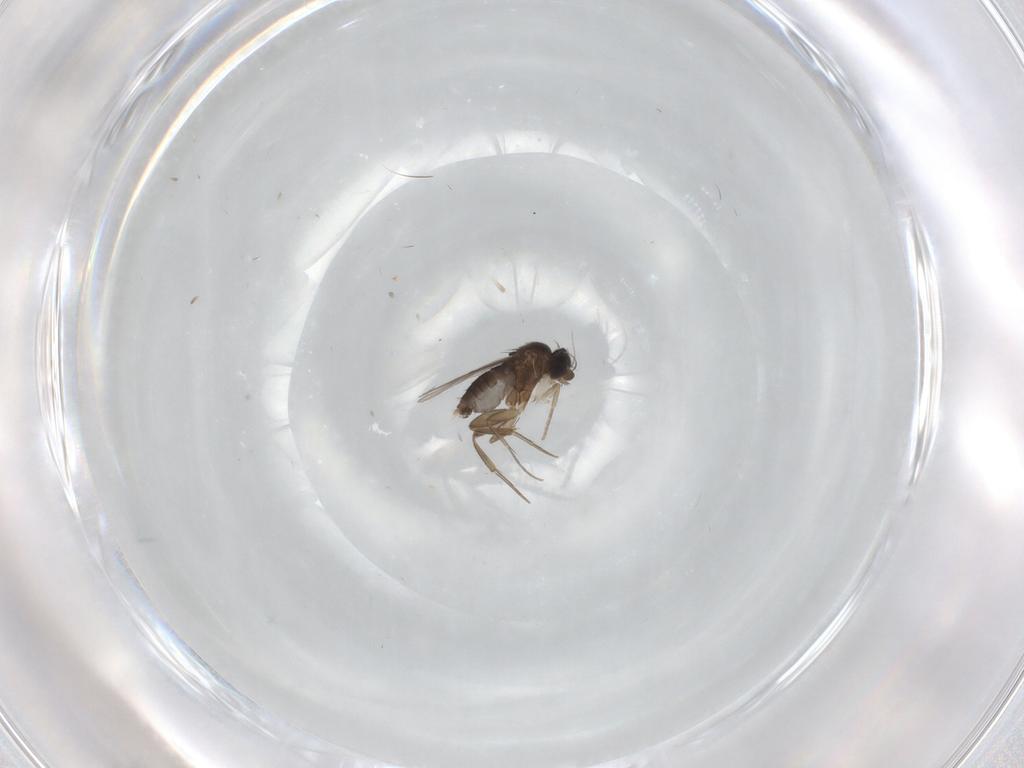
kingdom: Animalia
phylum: Arthropoda
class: Insecta
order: Diptera
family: Phoridae
